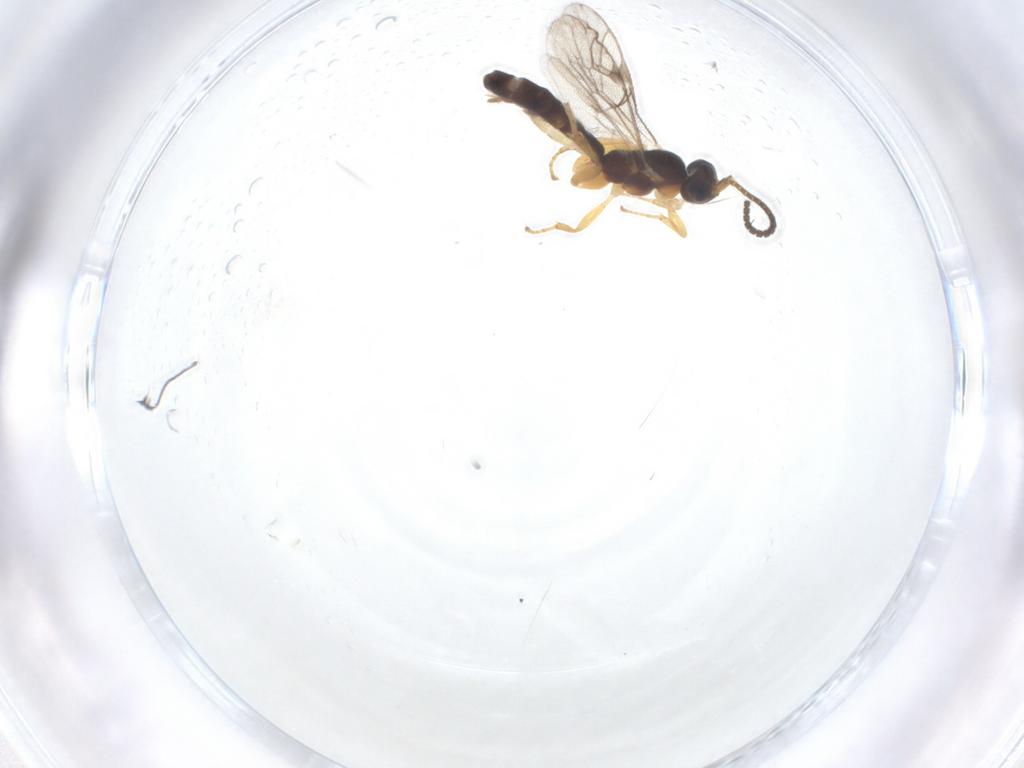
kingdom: Animalia
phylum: Arthropoda
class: Insecta
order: Hymenoptera
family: Ichneumonidae
